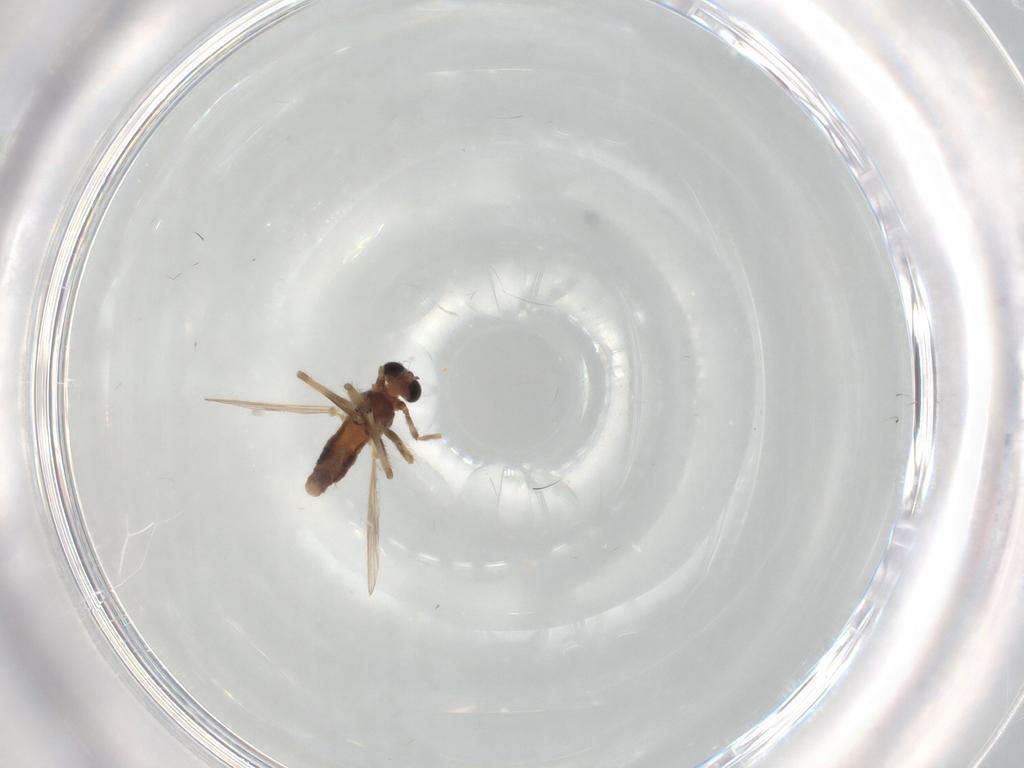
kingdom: Animalia
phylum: Arthropoda
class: Insecta
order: Diptera
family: Chironomidae
